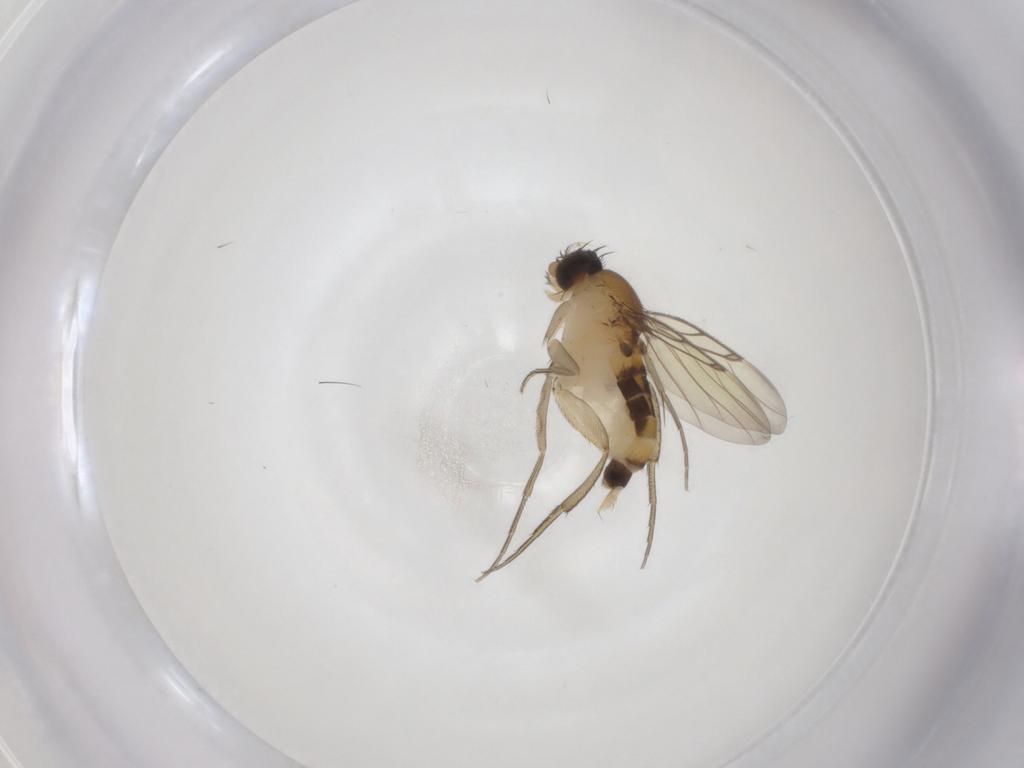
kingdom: Animalia
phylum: Arthropoda
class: Insecta
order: Diptera
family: Phoridae
